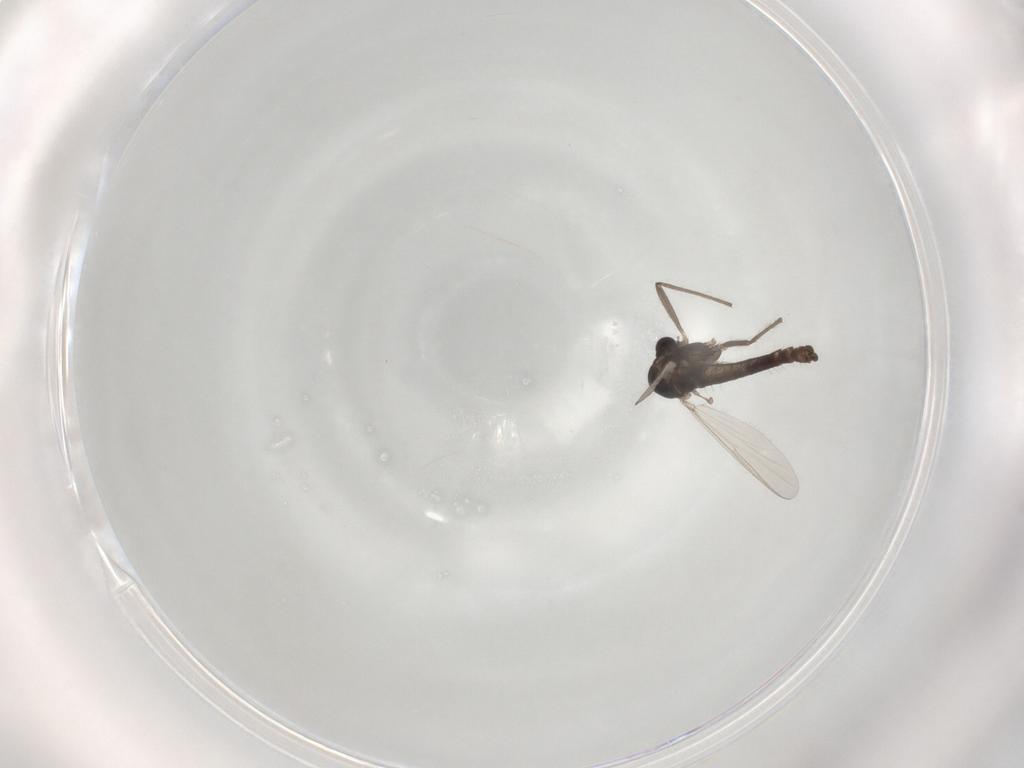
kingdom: Animalia
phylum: Arthropoda
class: Insecta
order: Diptera
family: Chironomidae
